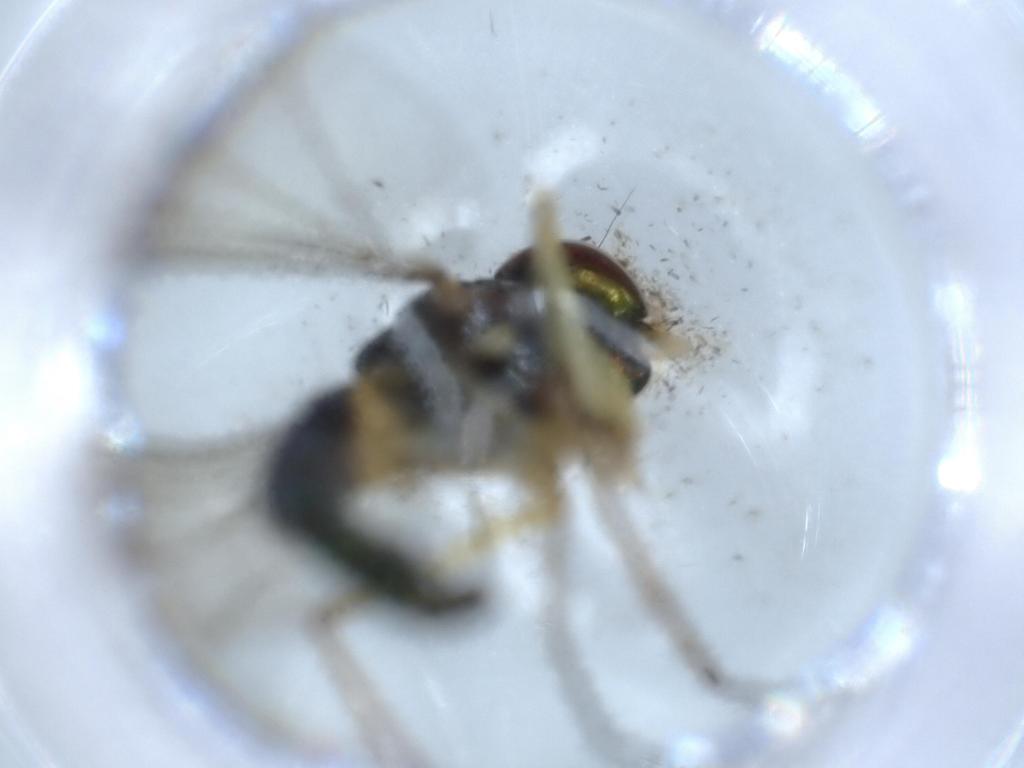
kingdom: Animalia
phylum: Arthropoda
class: Insecta
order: Diptera
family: Dolichopodidae
